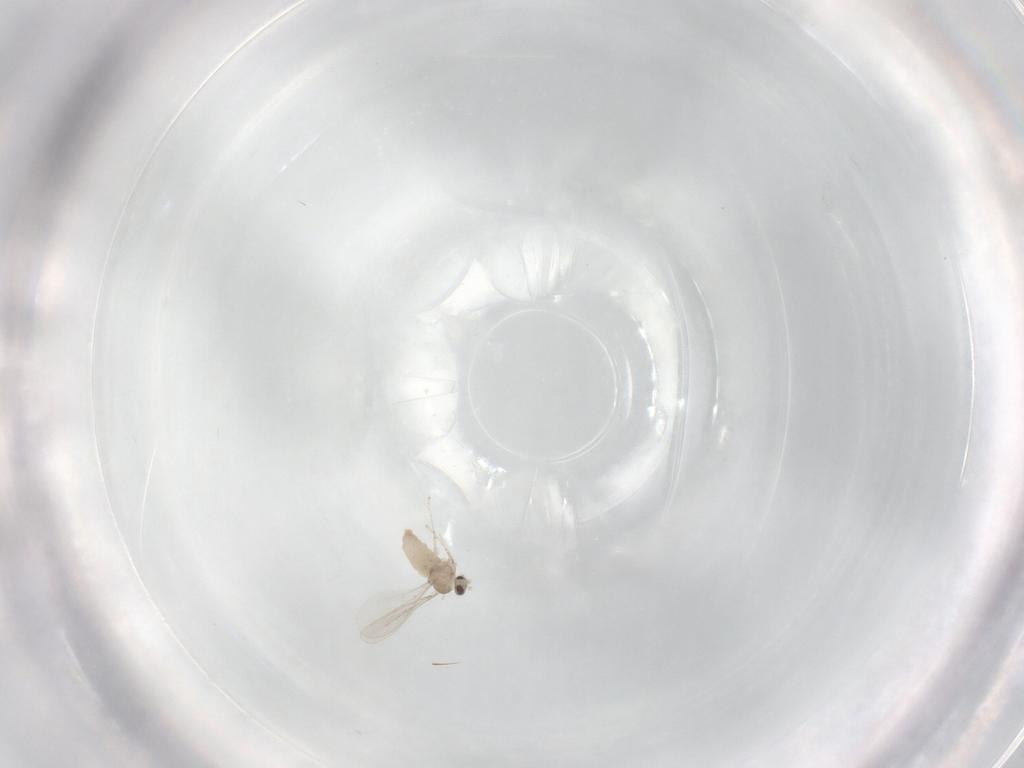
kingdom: Animalia
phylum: Arthropoda
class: Insecta
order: Diptera
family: Cecidomyiidae
